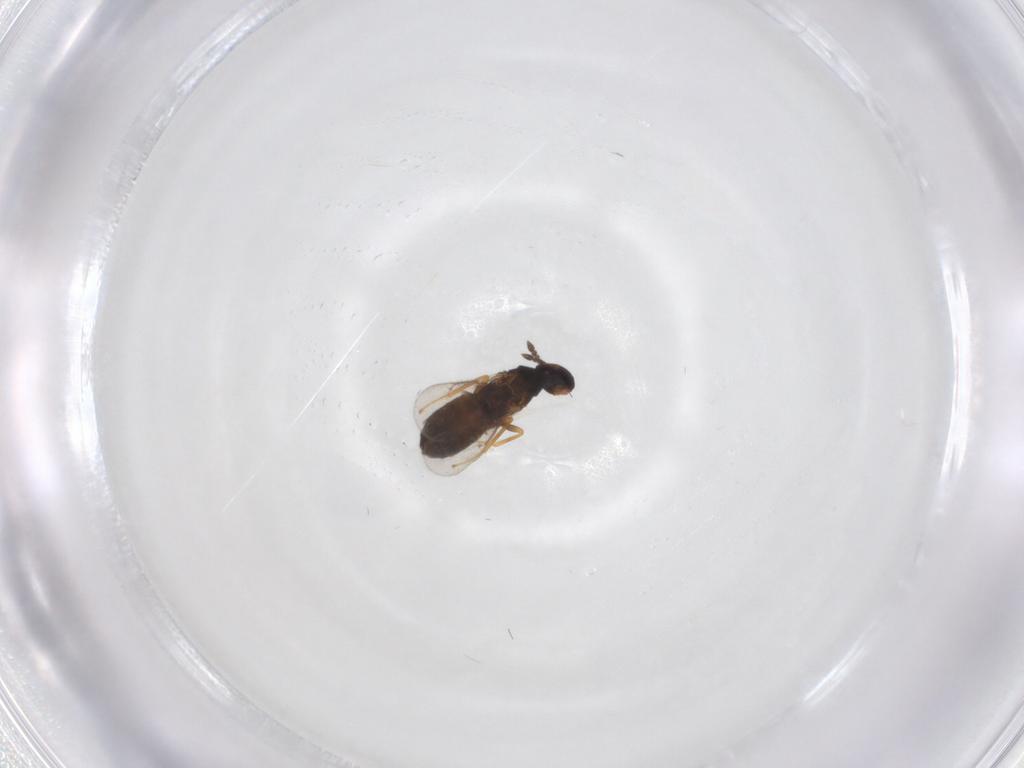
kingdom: Animalia
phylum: Arthropoda
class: Insecta
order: Hymenoptera
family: Eulophidae
